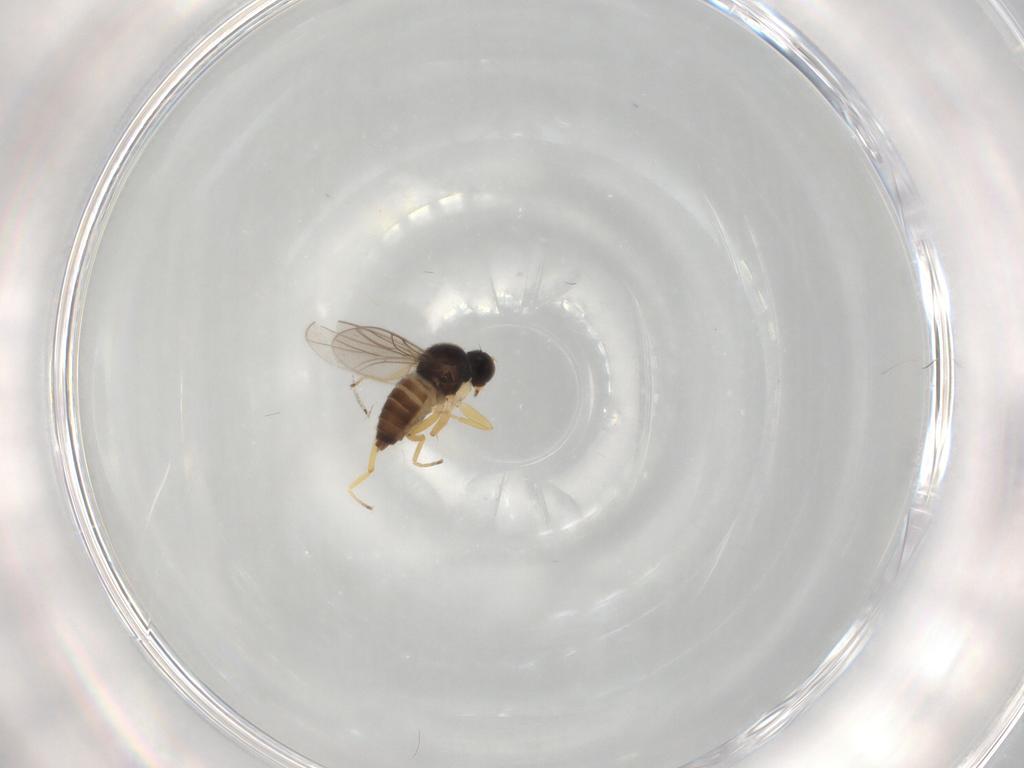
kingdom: Animalia
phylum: Arthropoda
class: Insecta
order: Diptera
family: Hybotidae
